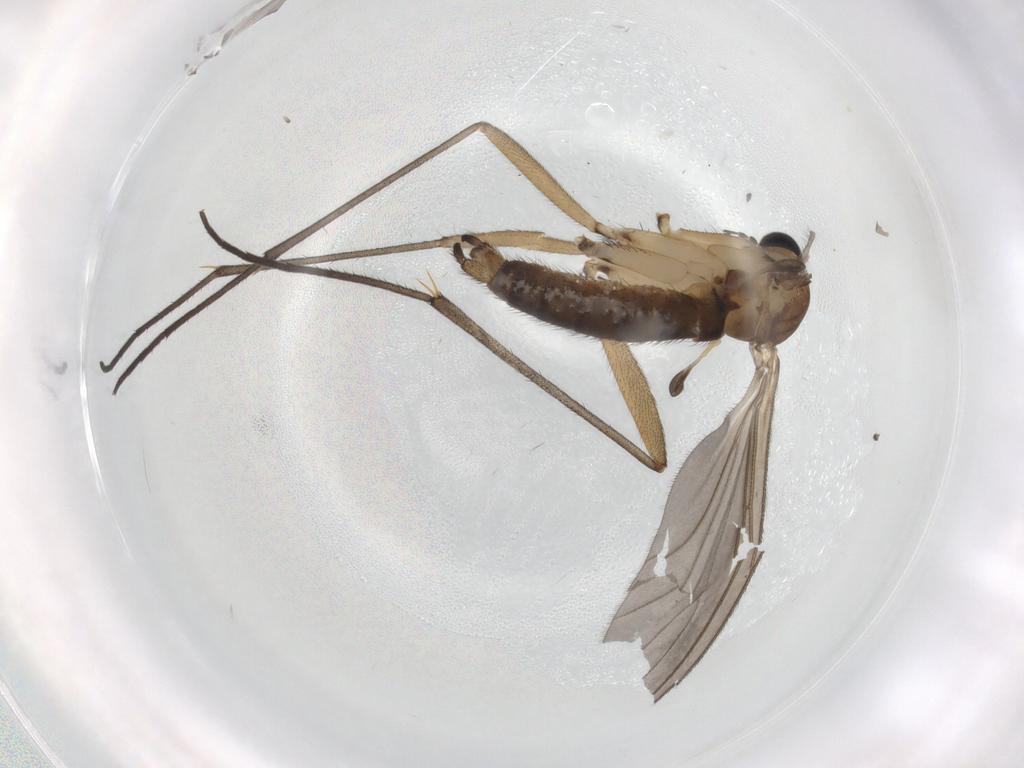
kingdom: Animalia
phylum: Arthropoda
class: Insecta
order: Diptera
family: Sciaridae
